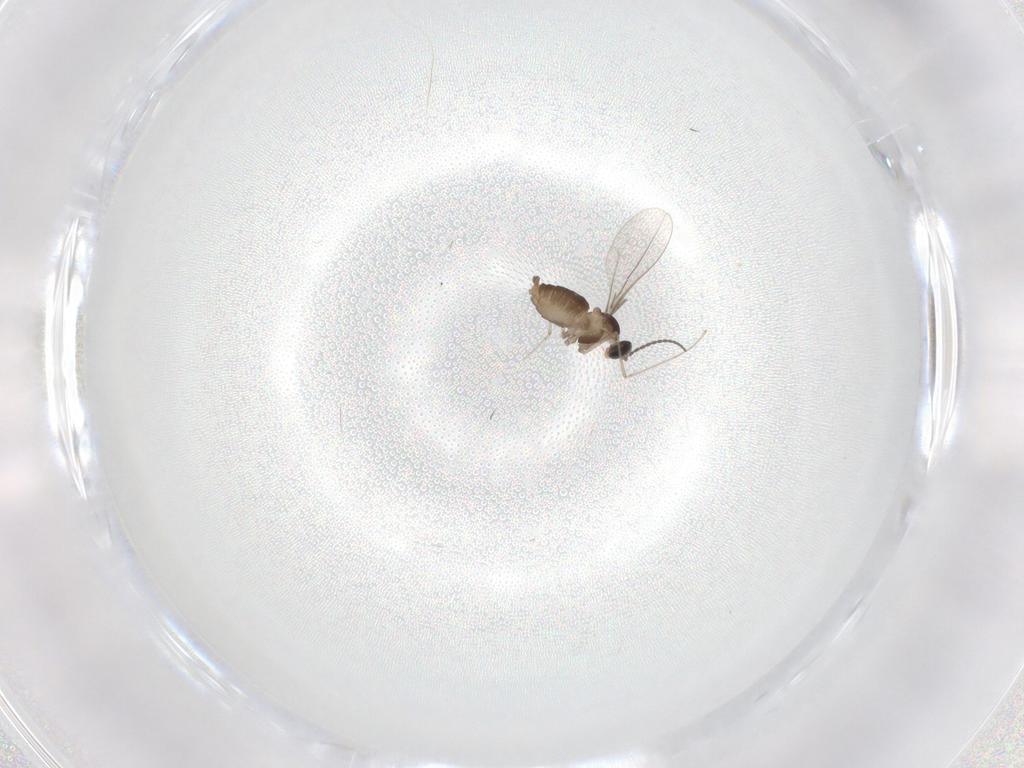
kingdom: Animalia
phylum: Arthropoda
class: Insecta
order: Diptera
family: Cecidomyiidae
